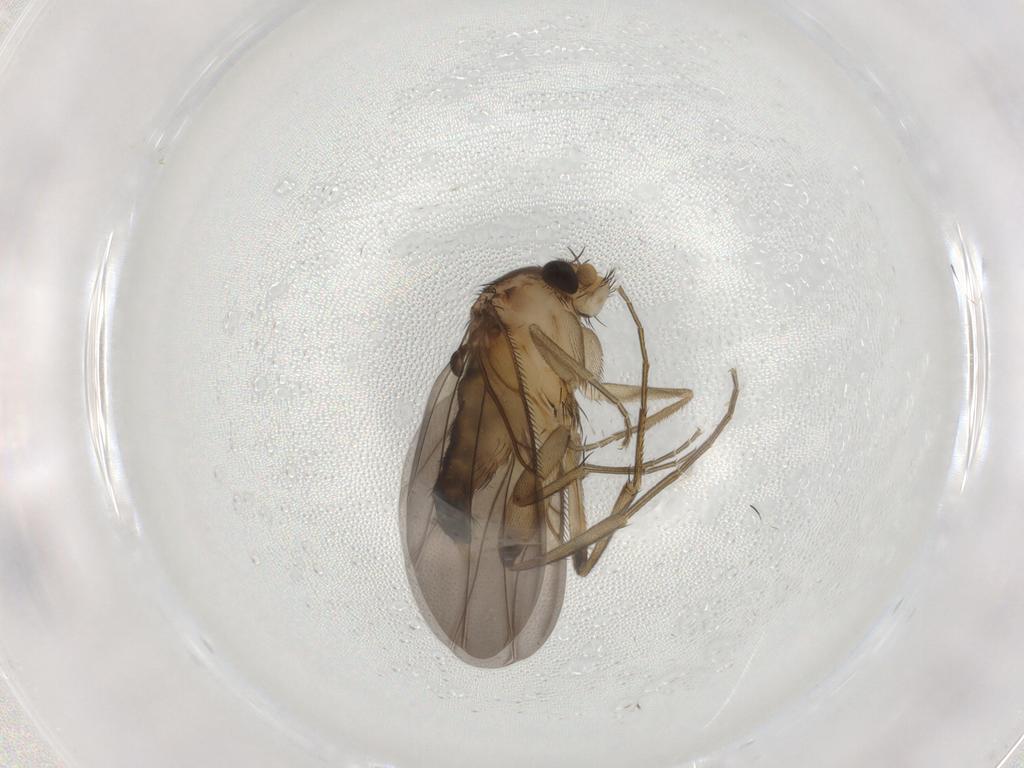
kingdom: Animalia
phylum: Arthropoda
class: Insecta
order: Diptera
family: Phoridae
